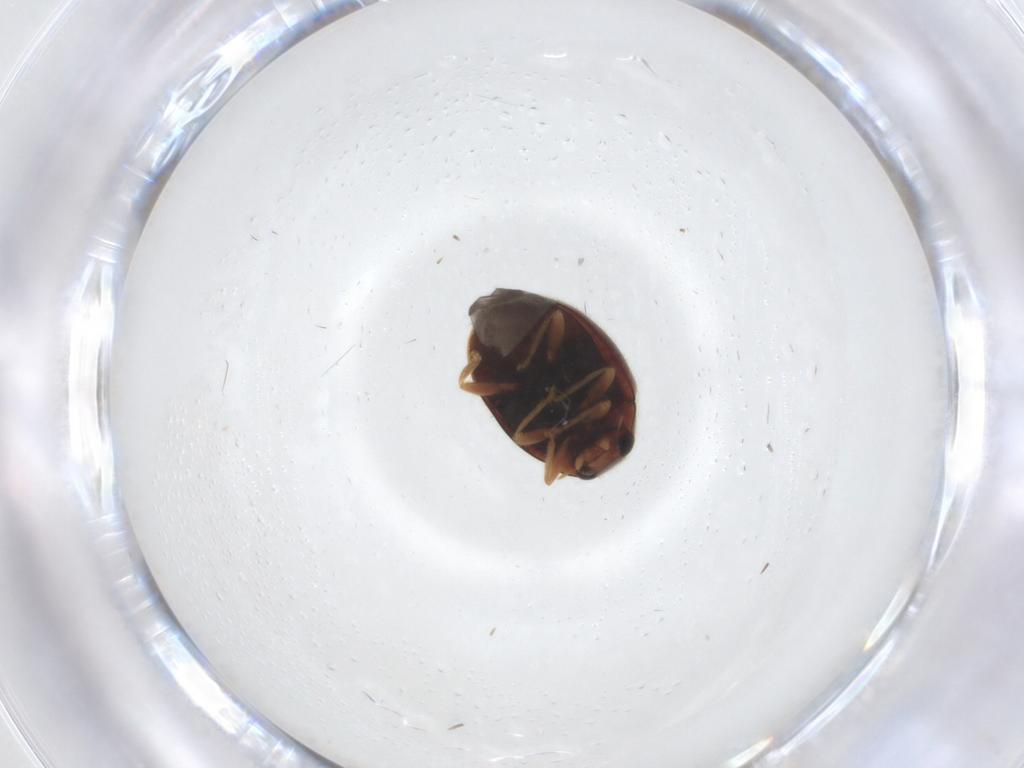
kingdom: Animalia
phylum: Arthropoda
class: Insecta
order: Coleoptera
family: Coccinellidae
